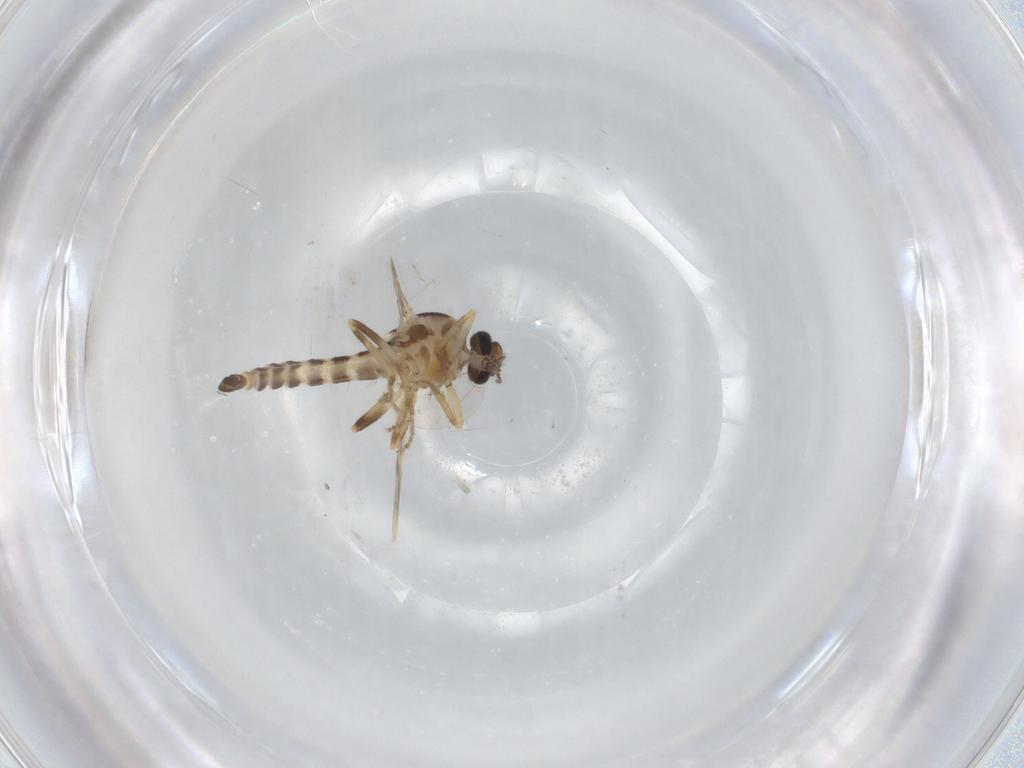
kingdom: Animalia
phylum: Arthropoda
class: Insecta
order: Diptera
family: Ceratopogonidae
